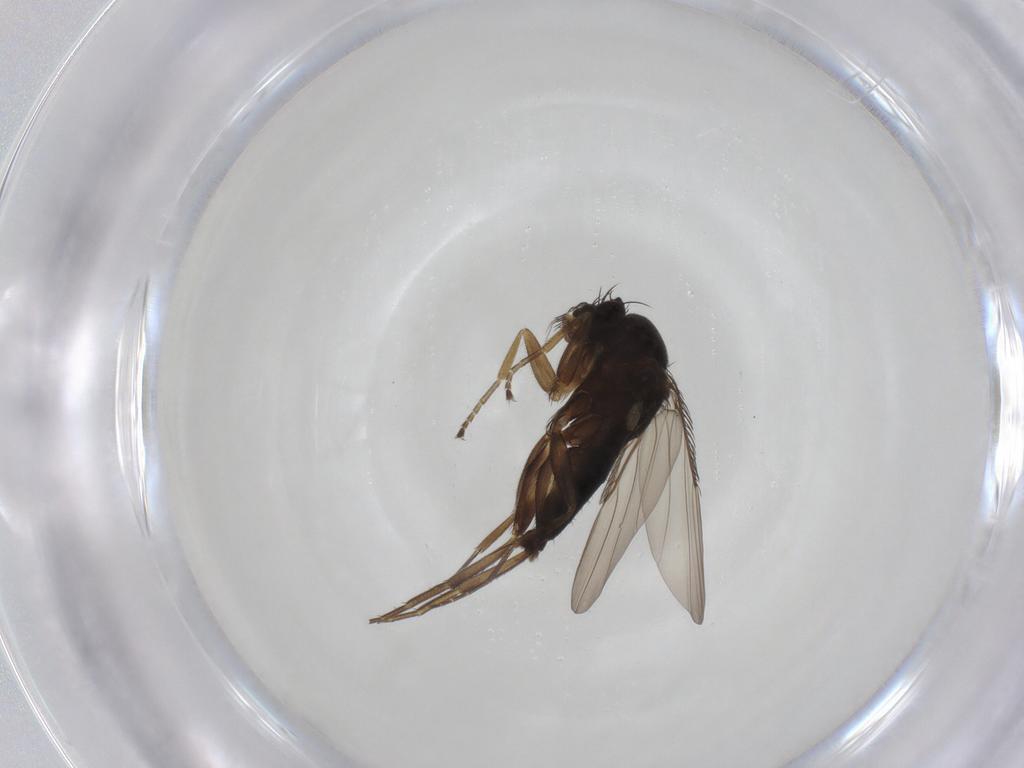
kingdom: Animalia
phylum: Arthropoda
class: Insecta
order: Diptera
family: Phoridae
